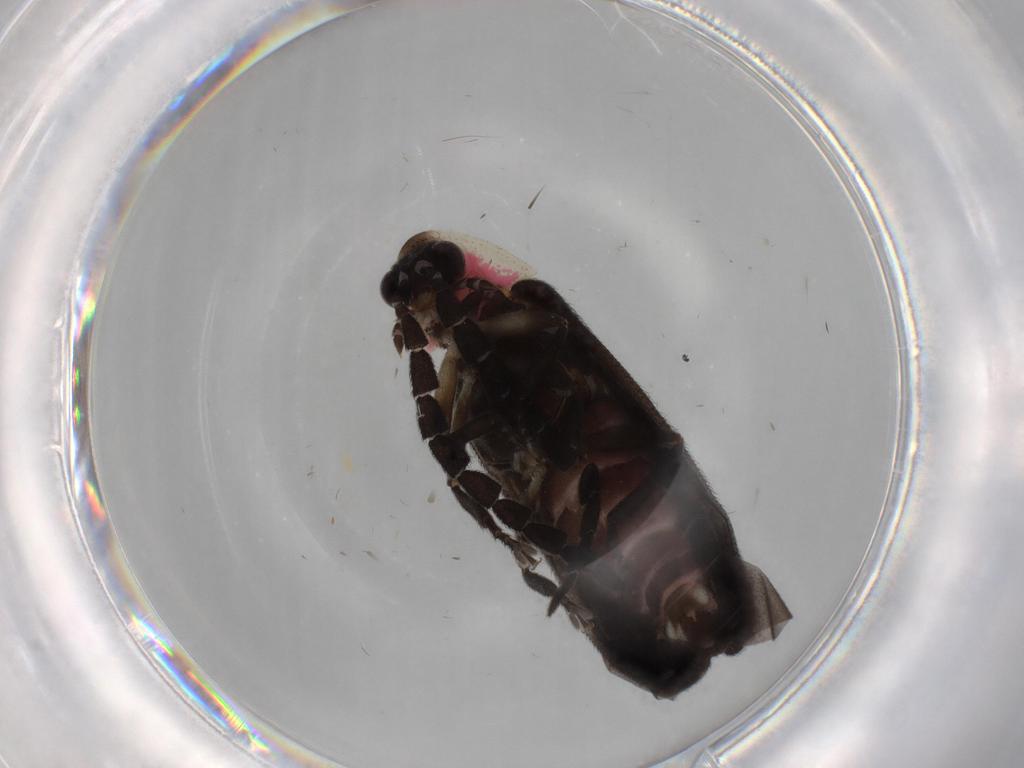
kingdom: Animalia
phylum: Arthropoda
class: Insecta
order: Coleoptera
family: Lampyridae
